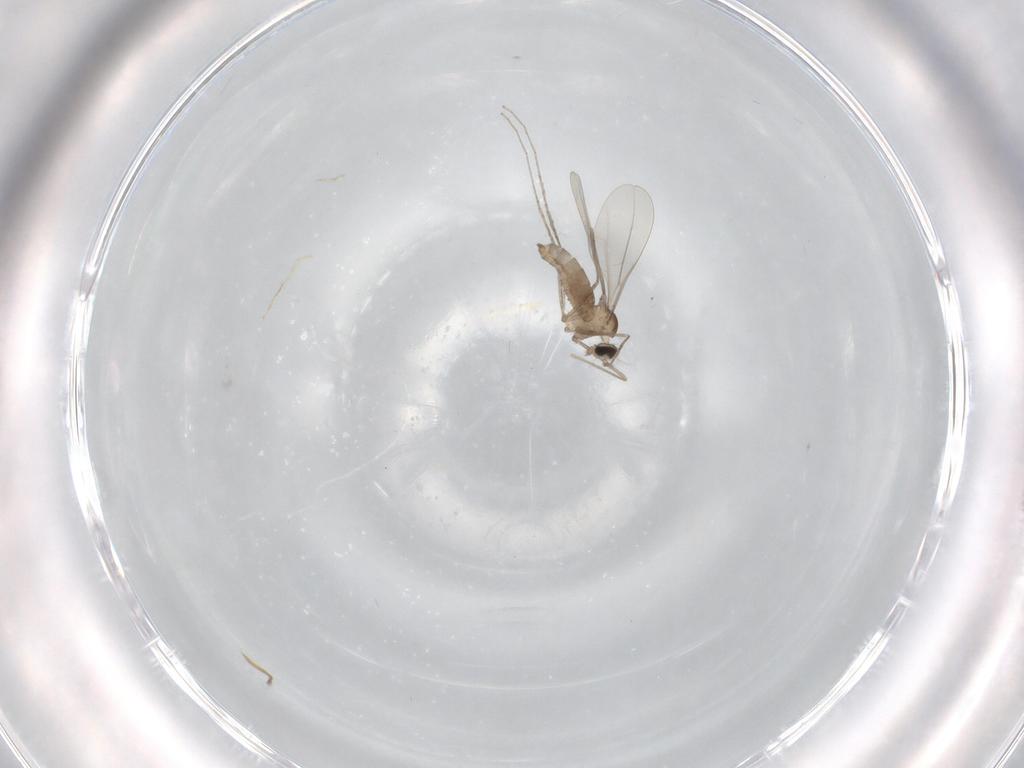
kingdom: Animalia
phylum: Arthropoda
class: Insecta
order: Diptera
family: Cecidomyiidae
